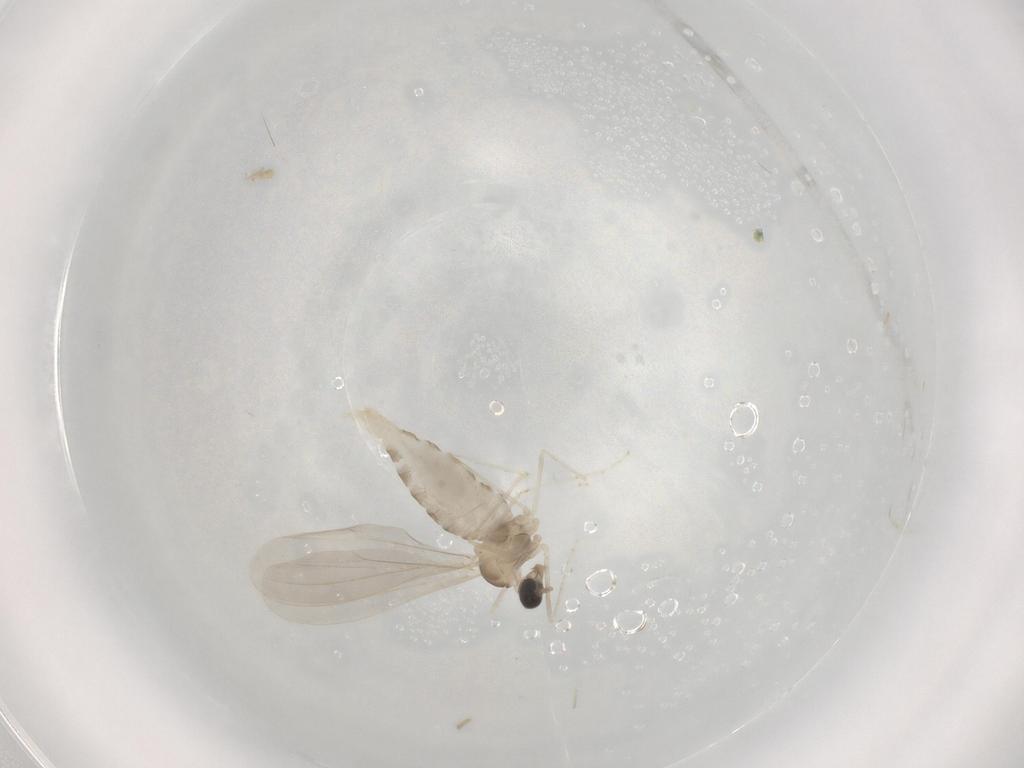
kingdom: Animalia
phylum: Arthropoda
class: Insecta
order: Diptera
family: Cecidomyiidae
